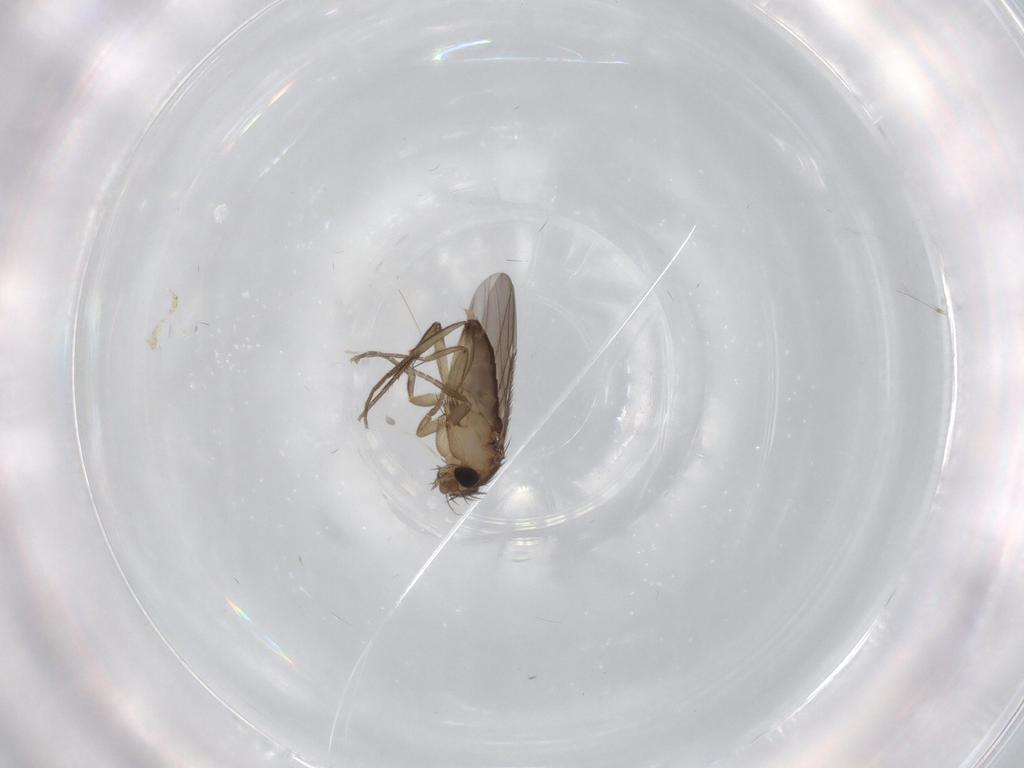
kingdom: Animalia
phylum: Arthropoda
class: Insecta
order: Diptera
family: Phoridae
